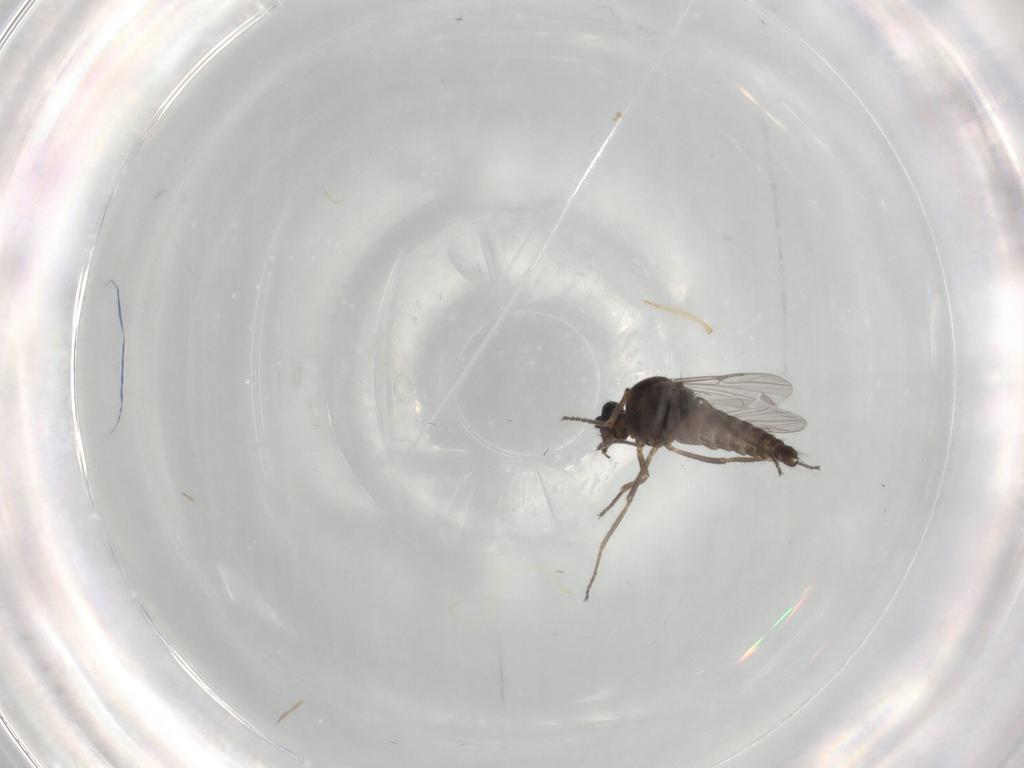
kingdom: Animalia
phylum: Arthropoda
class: Insecta
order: Diptera
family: Ceratopogonidae
